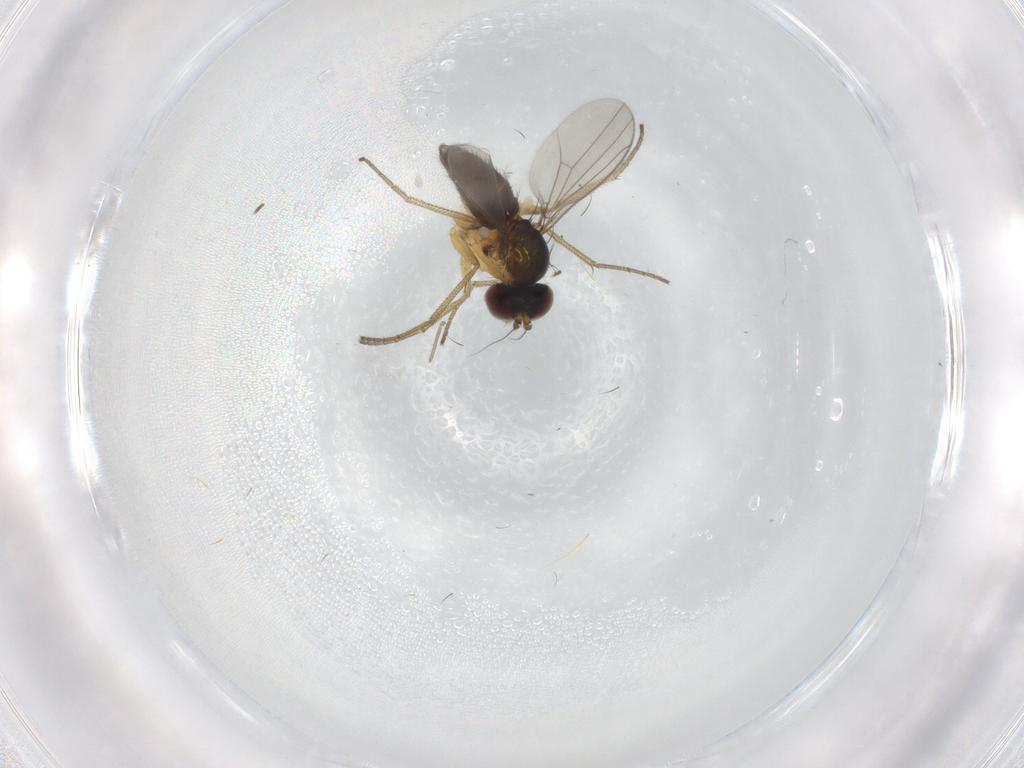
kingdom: Animalia
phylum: Arthropoda
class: Insecta
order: Diptera
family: Dolichopodidae
